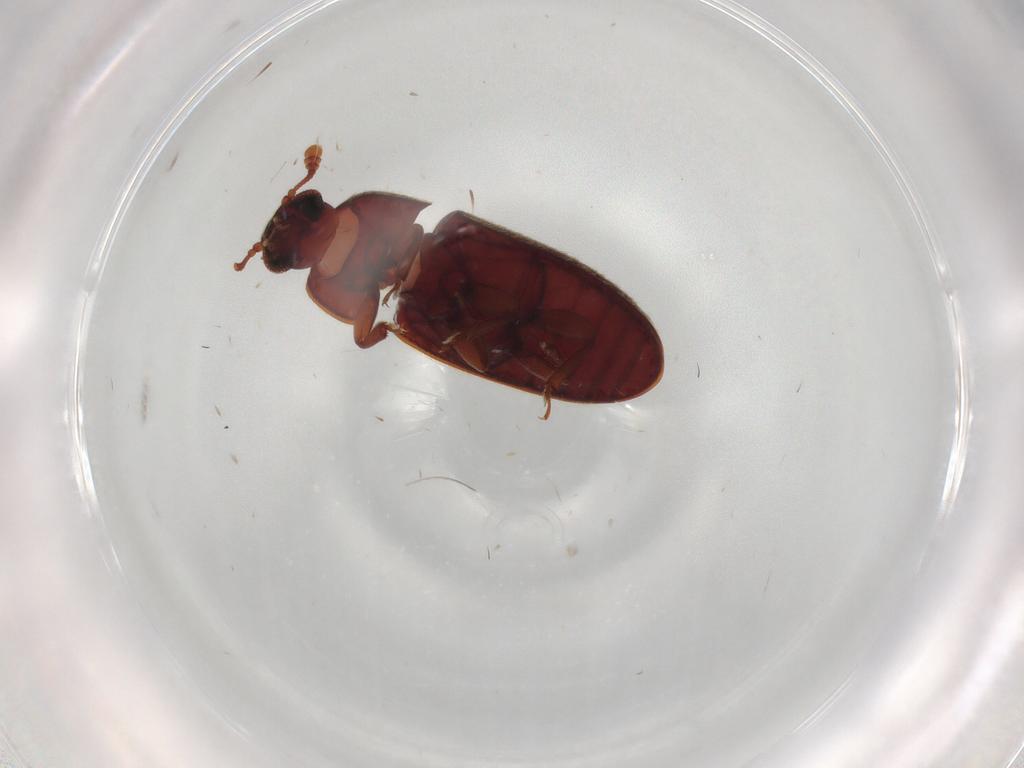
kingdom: Animalia
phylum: Arthropoda
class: Insecta
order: Coleoptera
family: Biphyllidae
